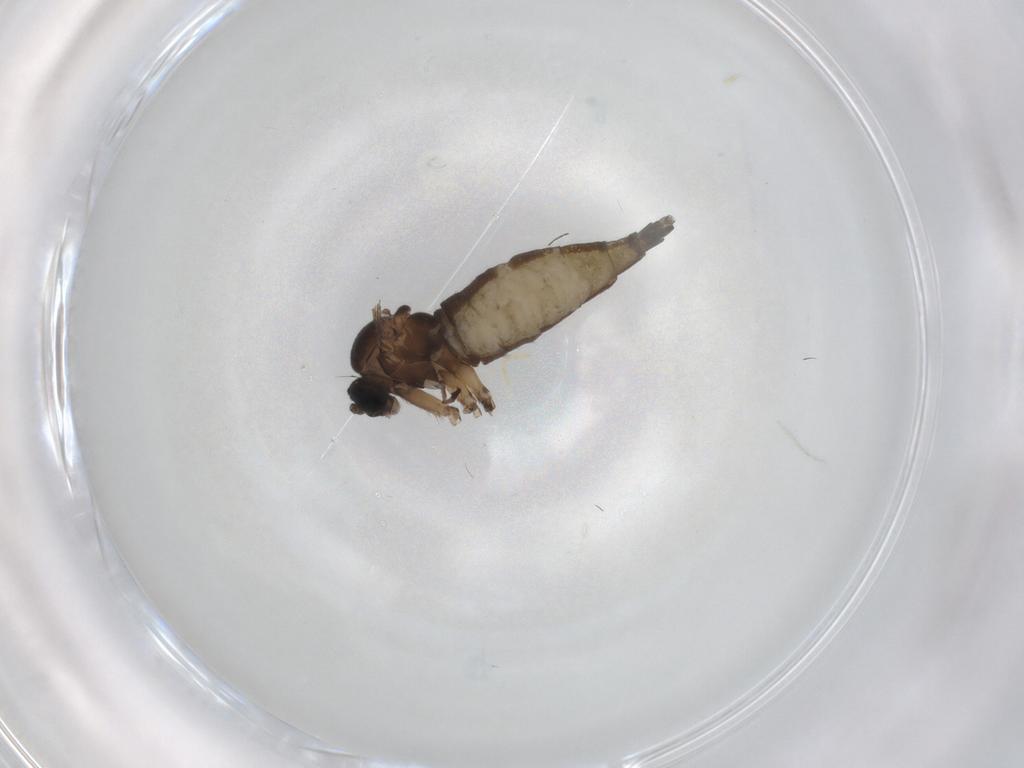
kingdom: Animalia
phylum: Arthropoda
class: Insecta
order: Diptera
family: Sciaridae
